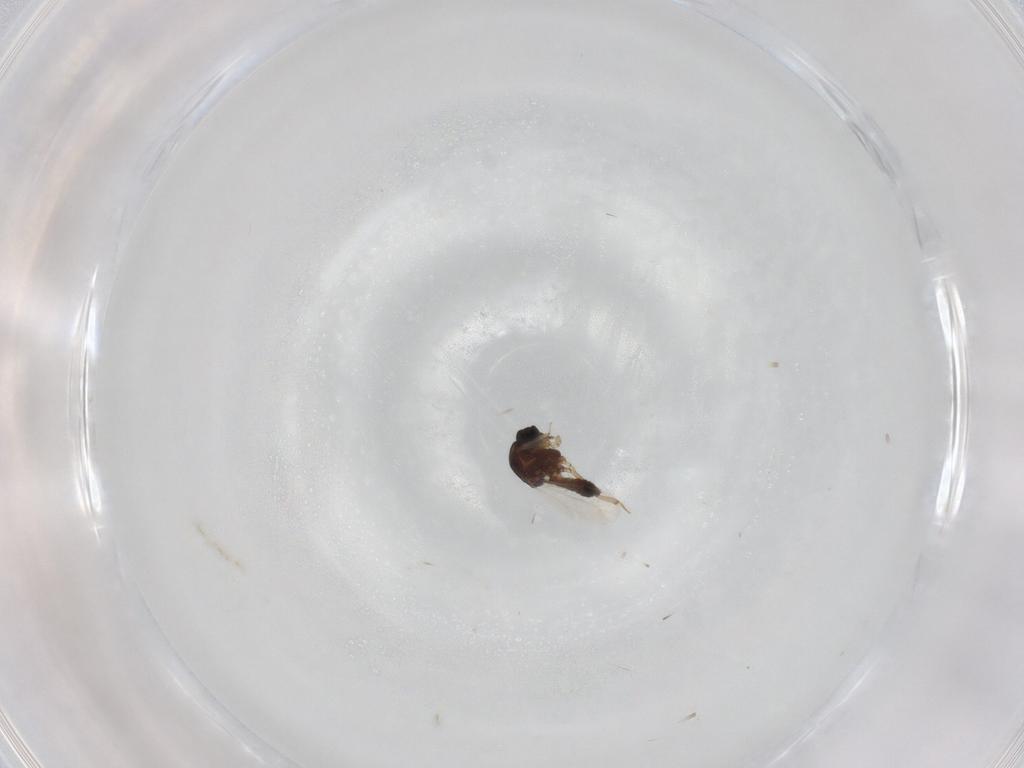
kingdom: Animalia
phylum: Arthropoda
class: Insecta
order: Diptera
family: Ceratopogonidae
